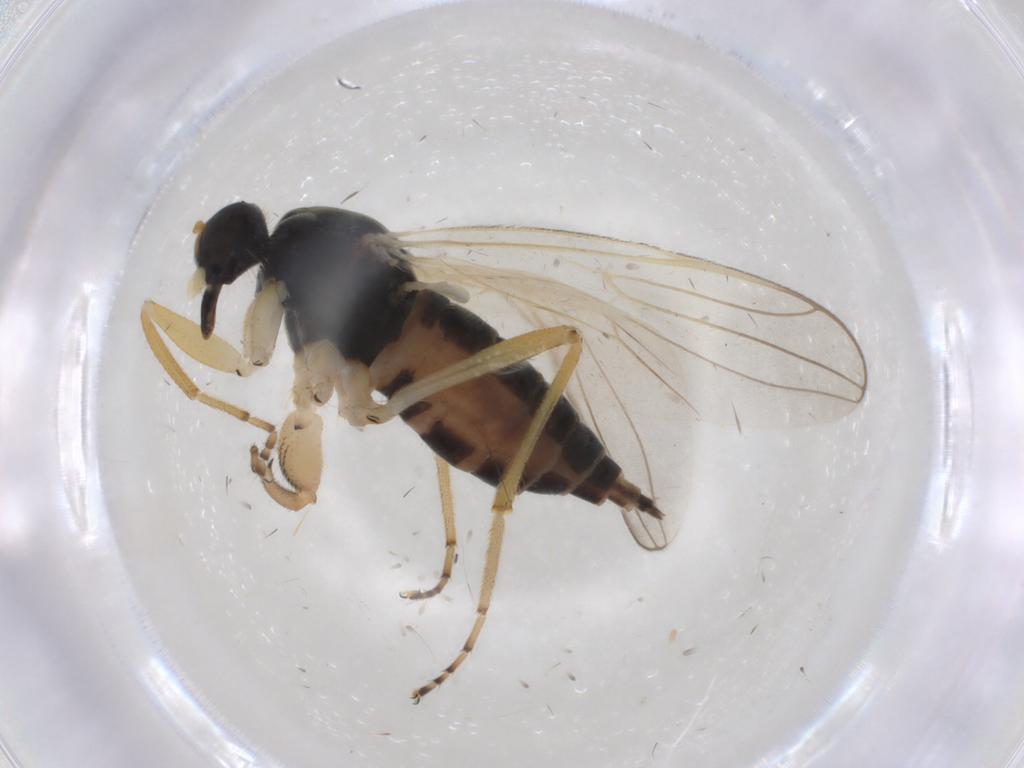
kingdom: Animalia
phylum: Arthropoda
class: Insecta
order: Diptera
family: Hybotidae
